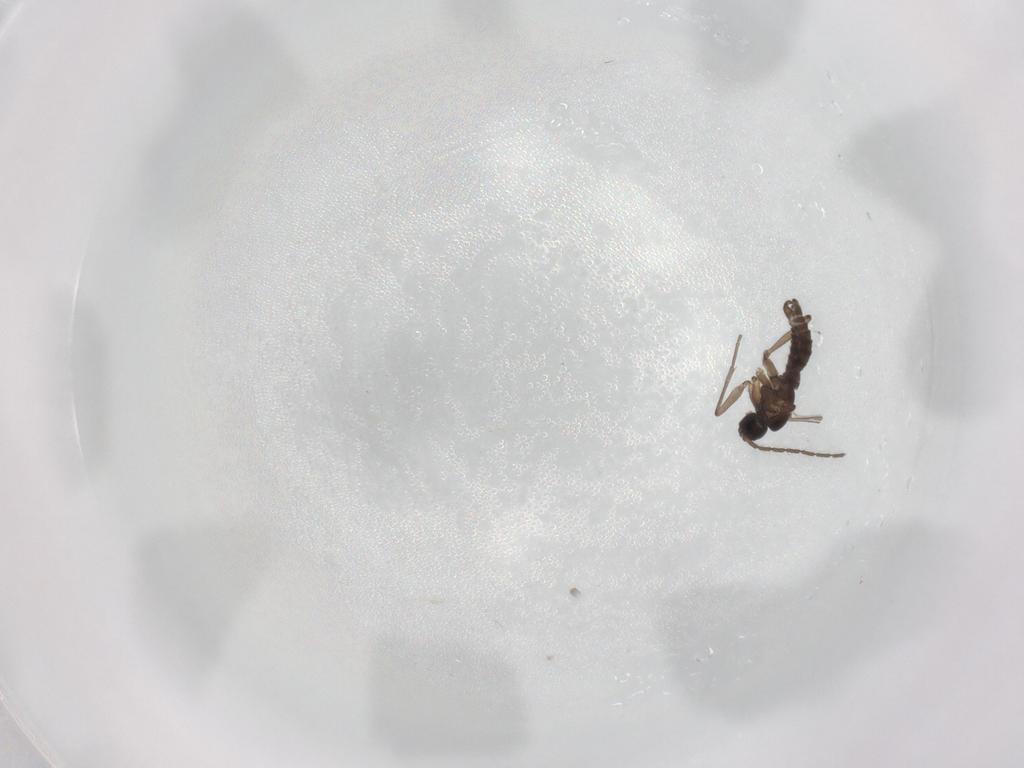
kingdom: Animalia
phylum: Arthropoda
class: Insecta
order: Diptera
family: Sciaridae
